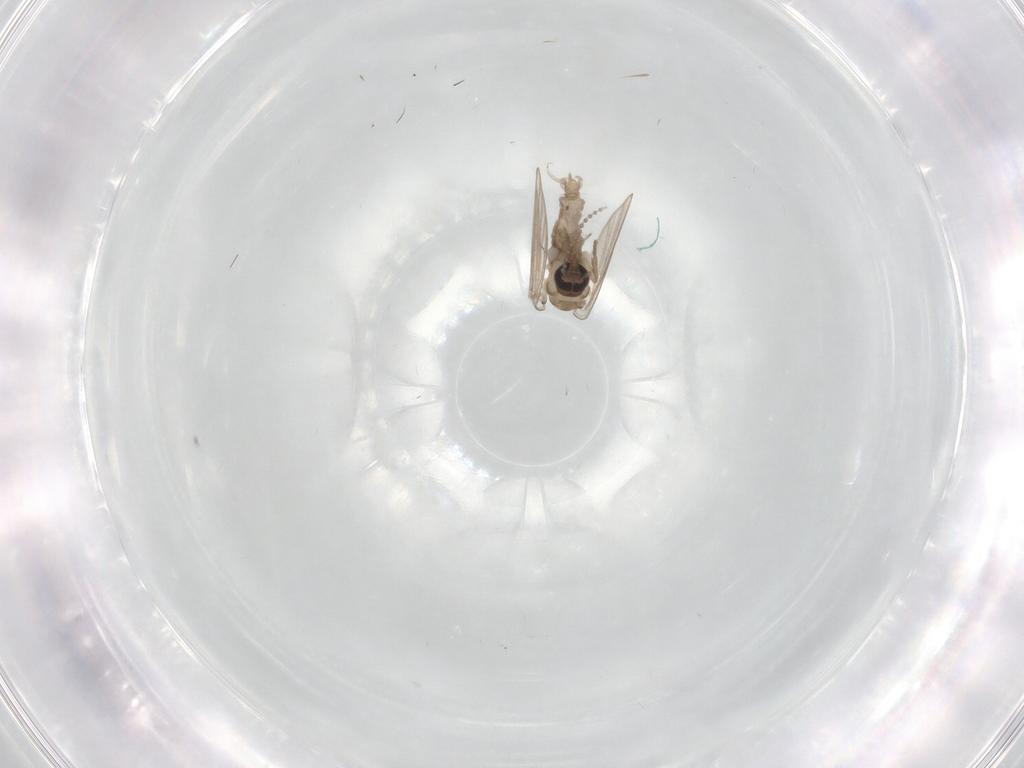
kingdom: Animalia
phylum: Arthropoda
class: Insecta
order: Diptera
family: Psychodidae
